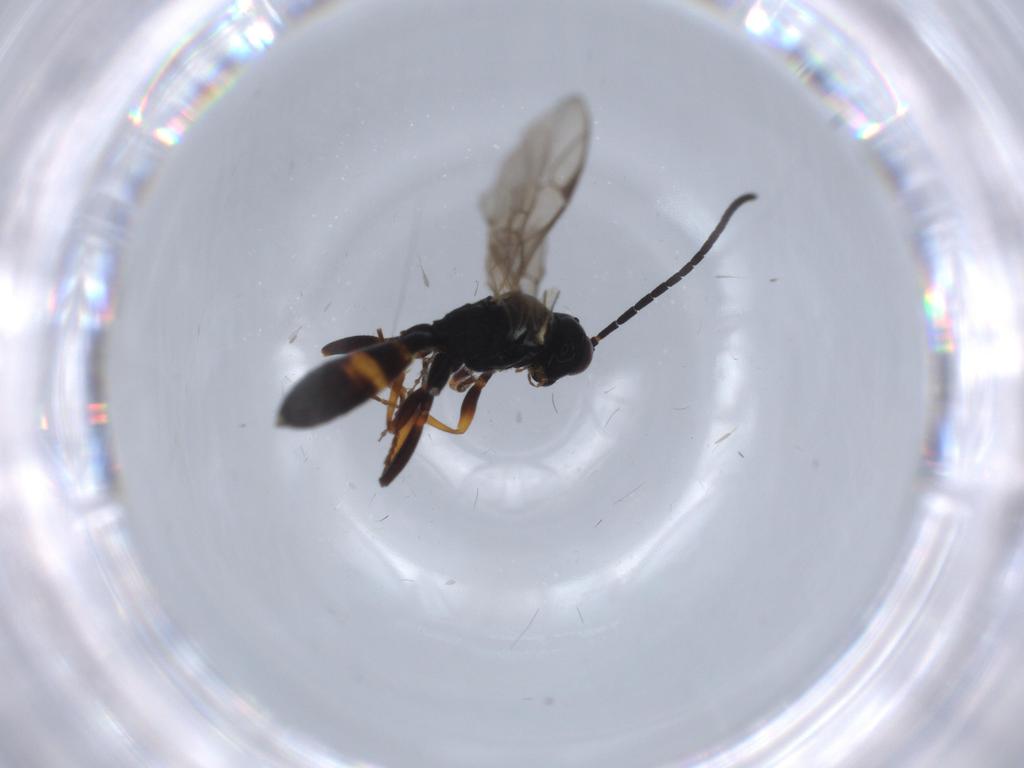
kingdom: Animalia
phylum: Arthropoda
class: Insecta
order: Hymenoptera
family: Ichneumonidae
